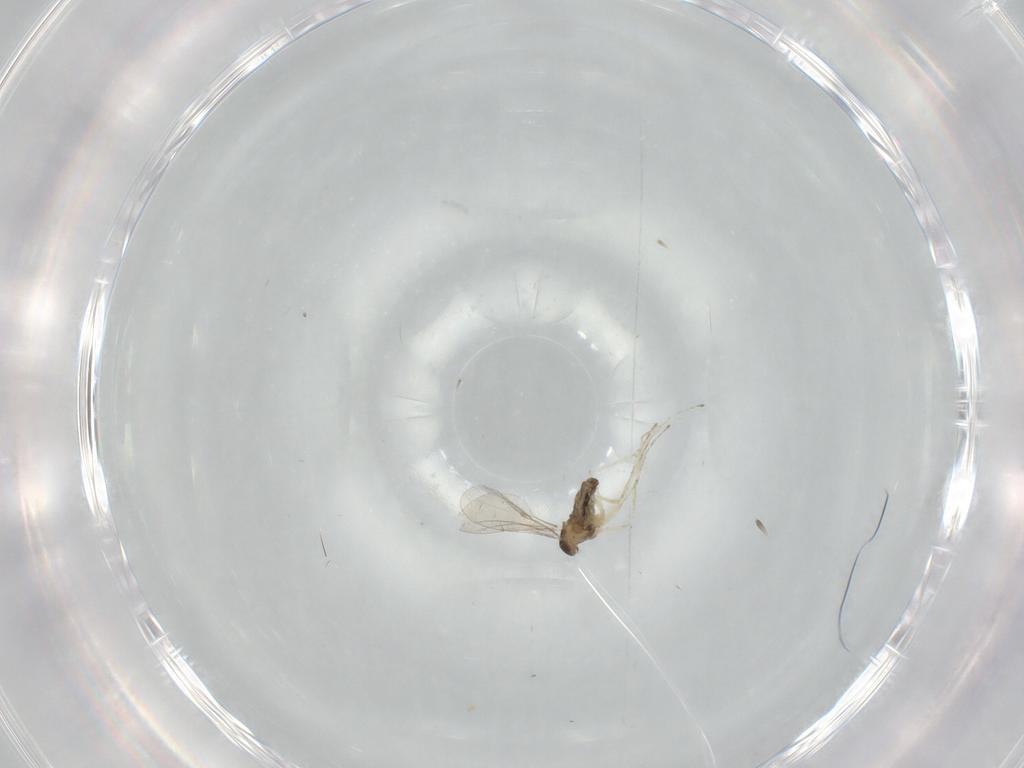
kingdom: Animalia
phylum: Arthropoda
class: Insecta
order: Diptera
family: Cecidomyiidae
